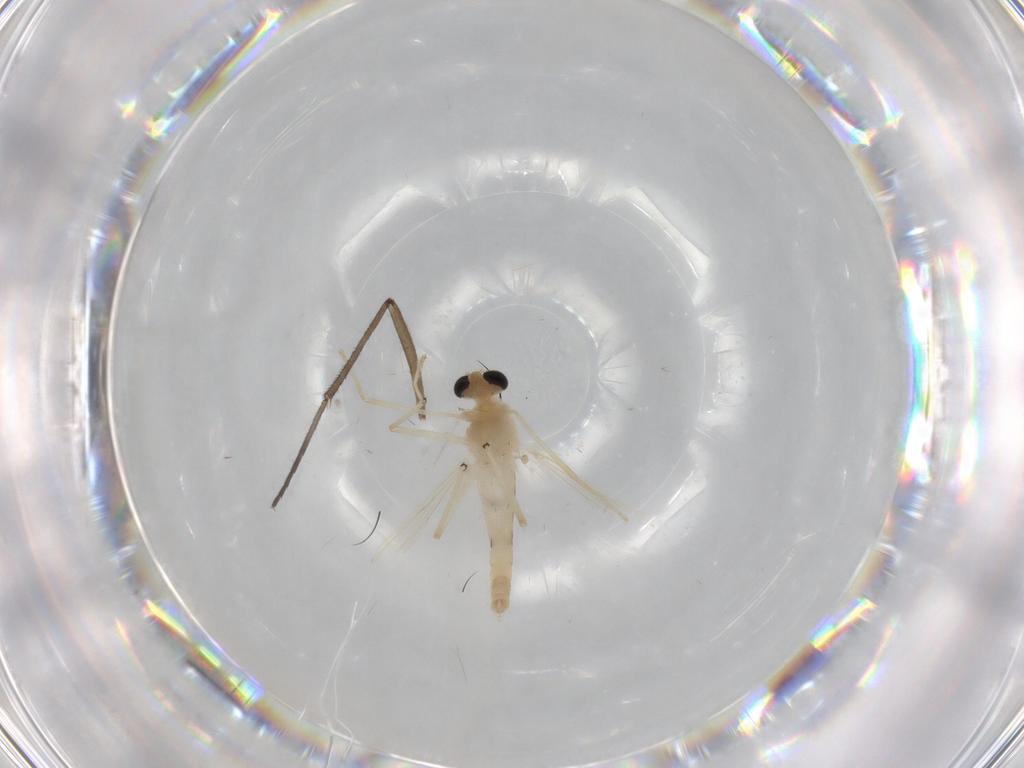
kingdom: Animalia
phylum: Arthropoda
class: Insecta
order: Diptera
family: Chironomidae
